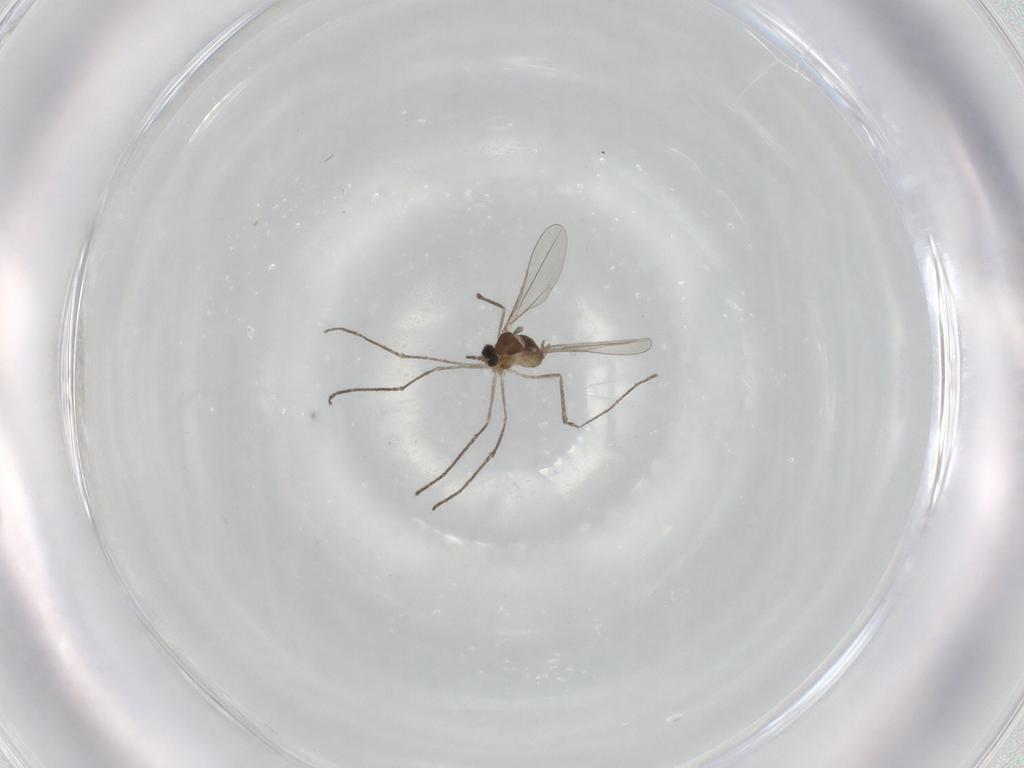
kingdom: Animalia
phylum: Arthropoda
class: Insecta
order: Diptera
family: Cecidomyiidae
